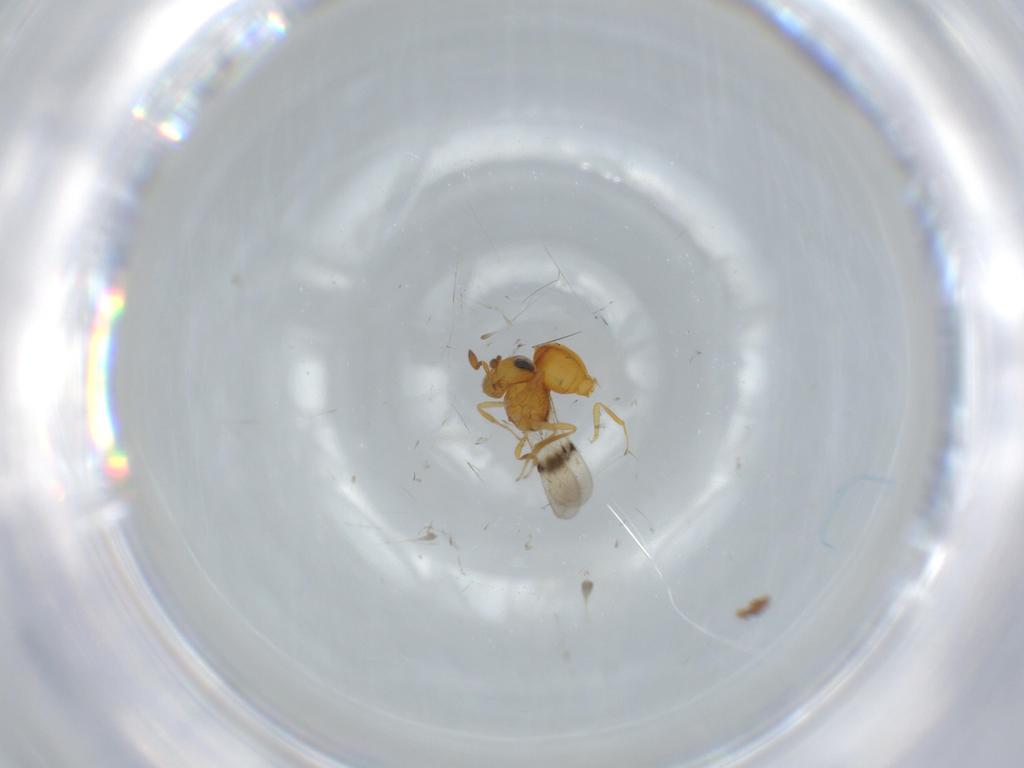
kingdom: Animalia
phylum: Arthropoda
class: Insecta
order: Hymenoptera
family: Scelionidae
